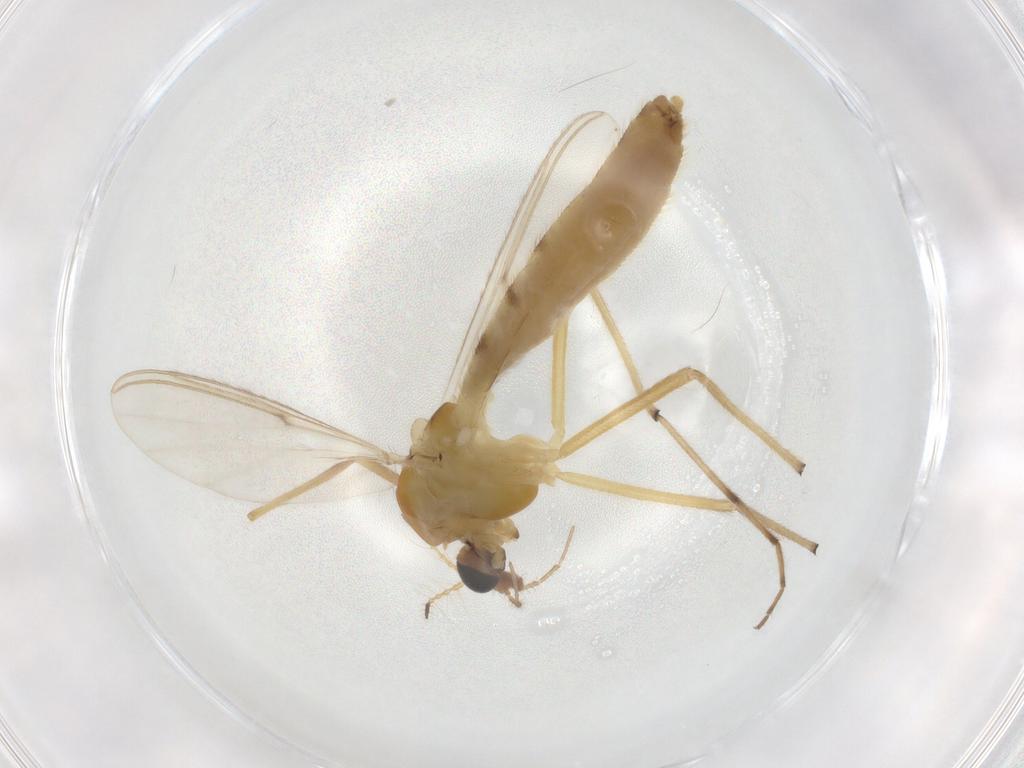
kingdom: Animalia
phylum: Arthropoda
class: Insecta
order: Diptera
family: Chironomidae
